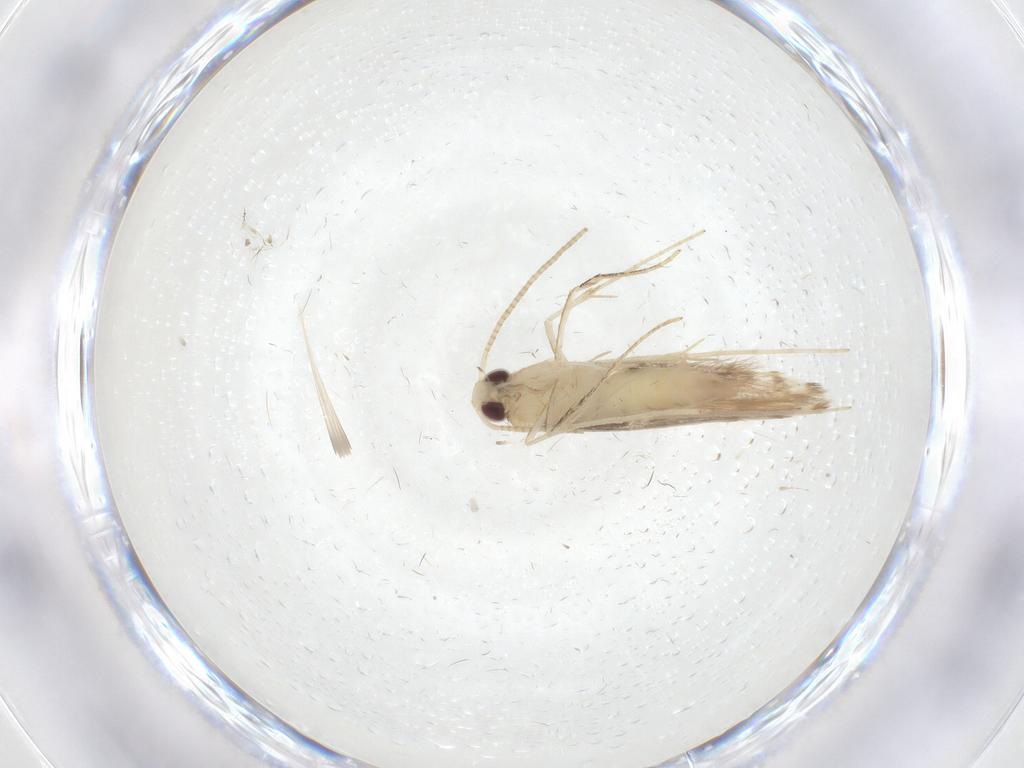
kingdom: Animalia
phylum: Arthropoda
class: Insecta
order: Lepidoptera
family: Gracillariidae
